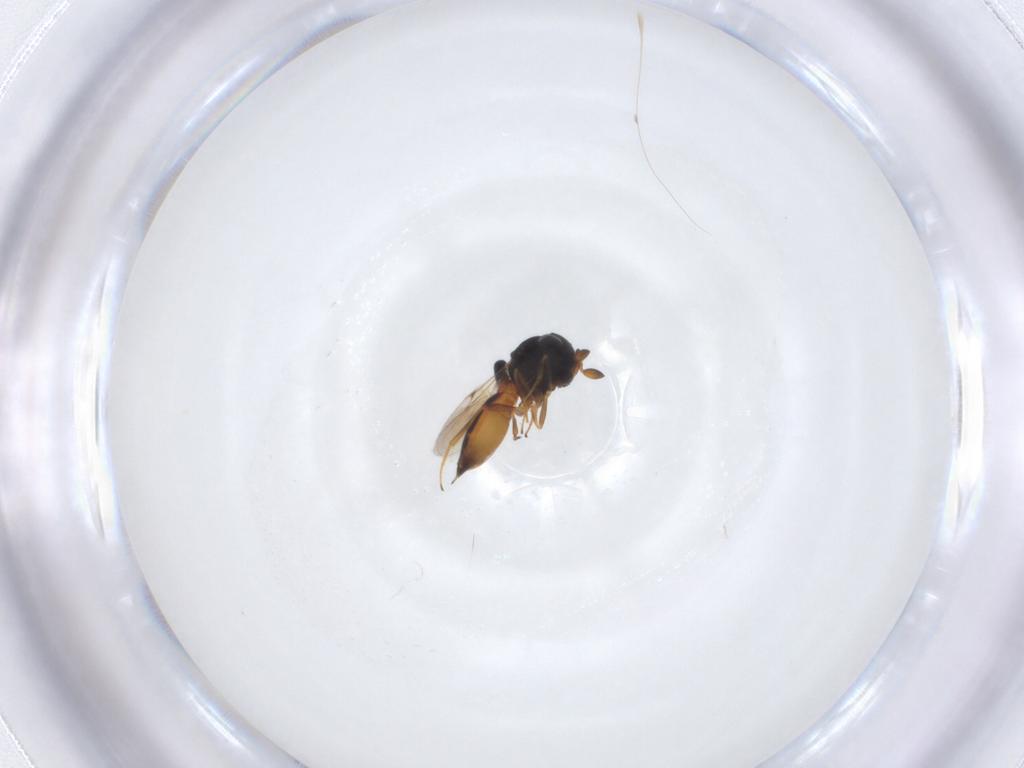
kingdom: Animalia
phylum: Arthropoda
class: Insecta
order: Hymenoptera
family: Scelionidae
